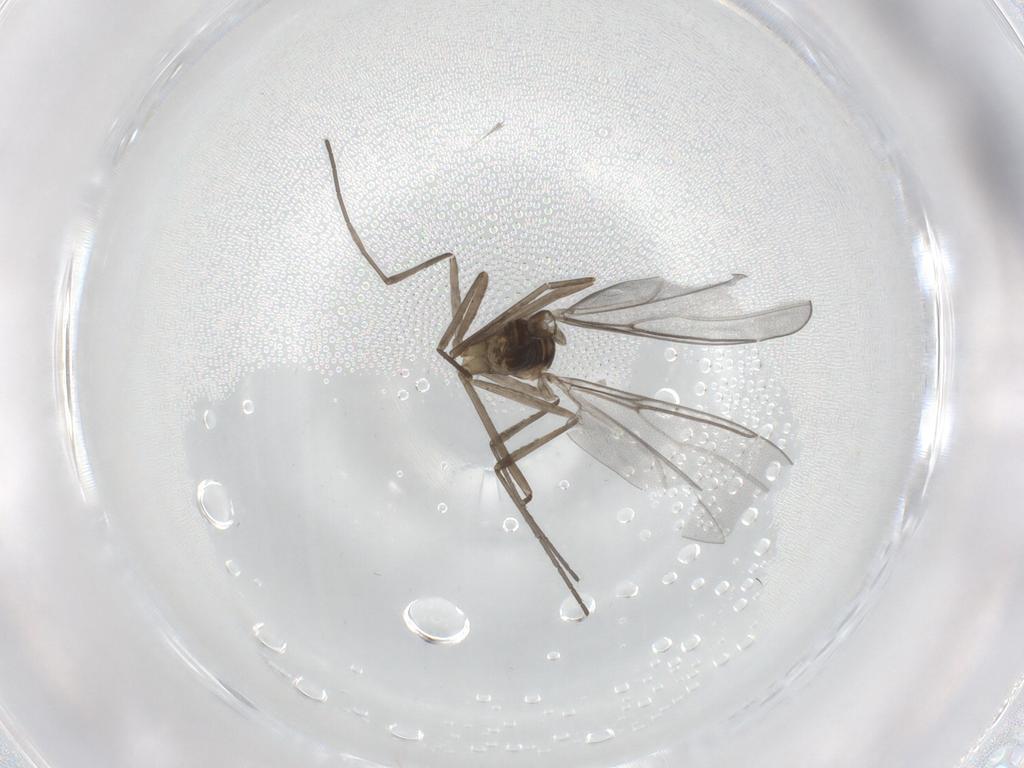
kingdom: Animalia
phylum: Arthropoda
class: Insecta
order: Diptera
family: Cecidomyiidae
